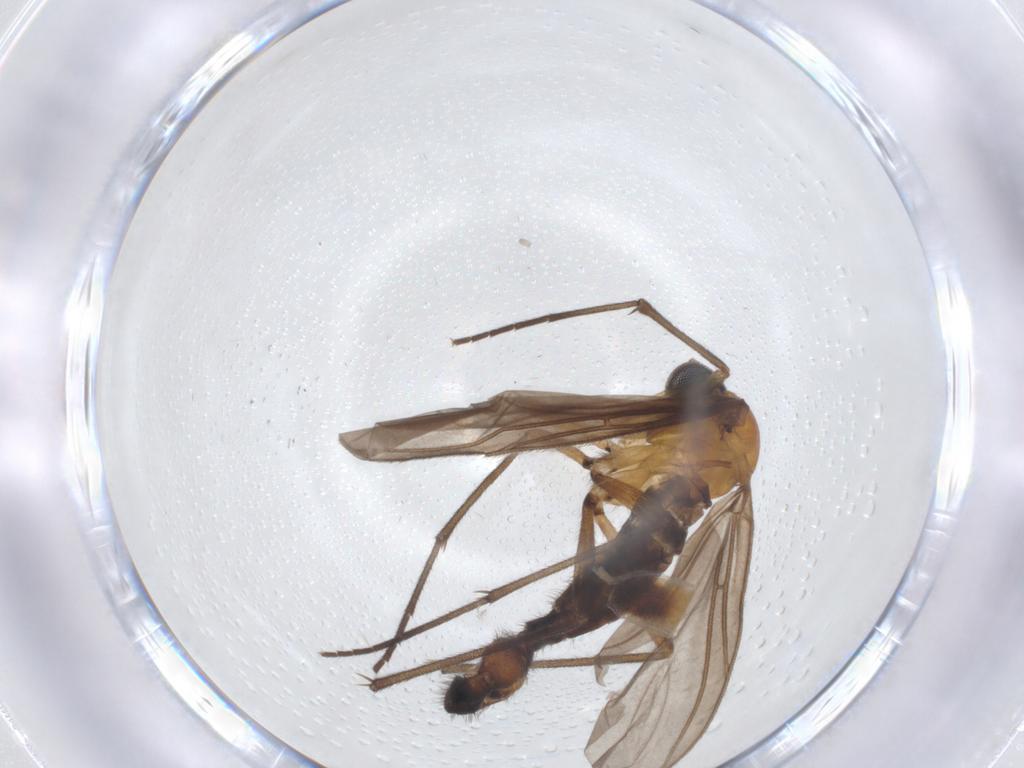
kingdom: Animalia
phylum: Arthropoda
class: Insecta
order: Diptera
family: Sciaridae
